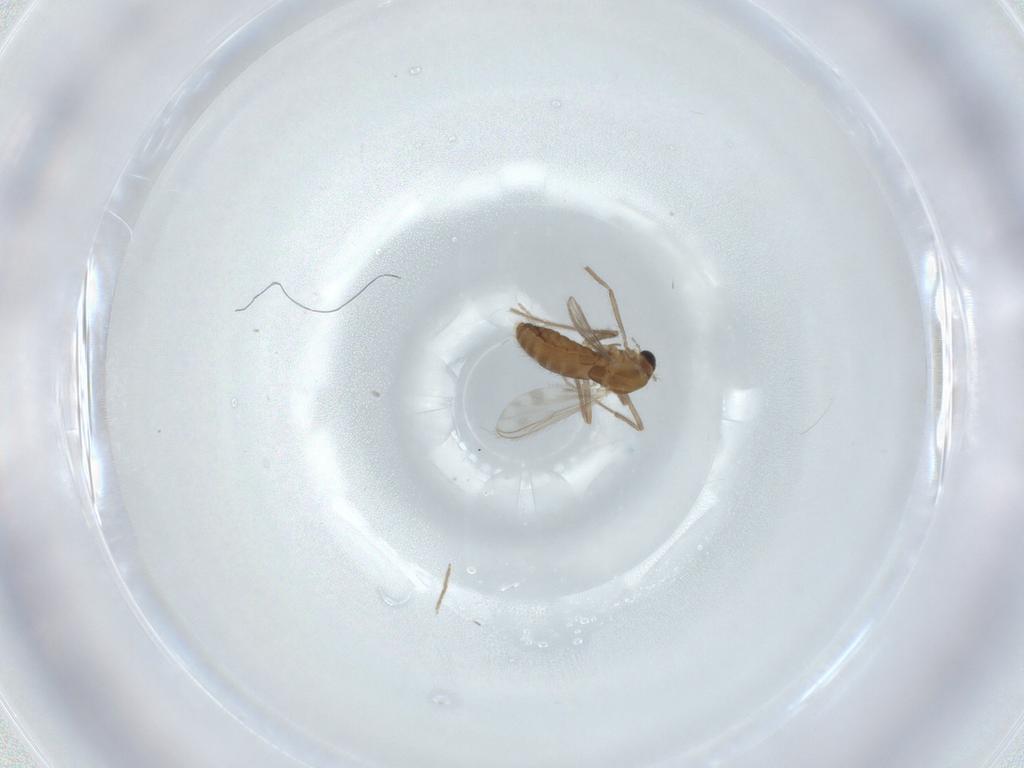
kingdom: Animalia
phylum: Arthropoda
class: Insecta
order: Diptera
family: Chironomidae
